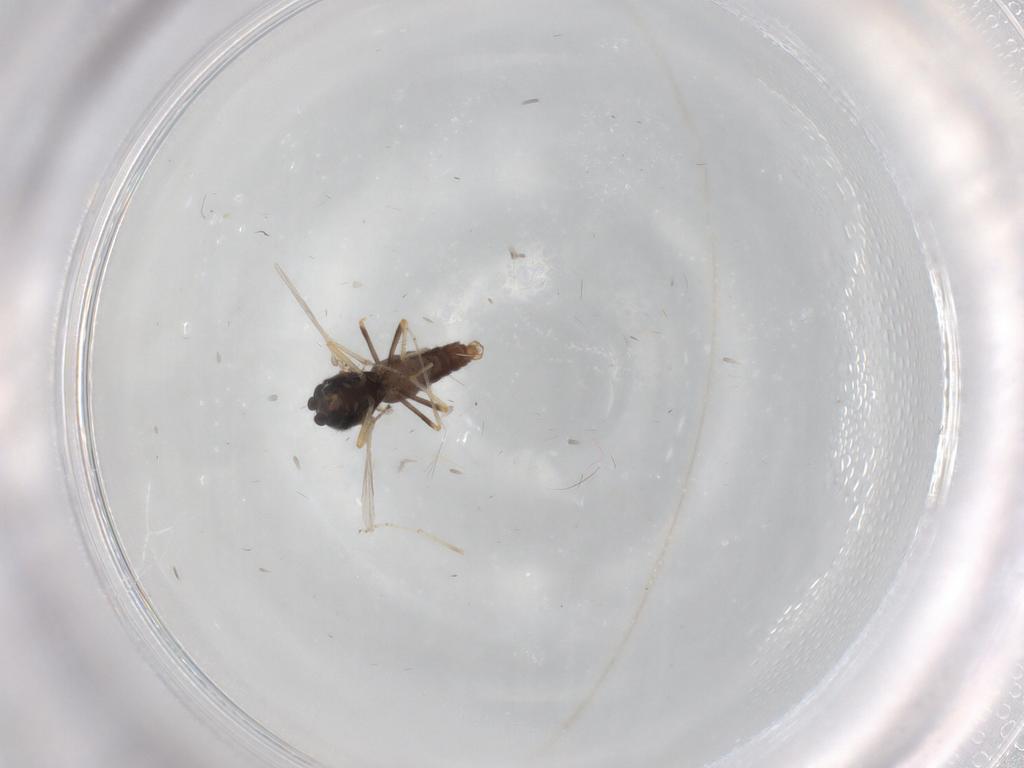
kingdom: Animalia
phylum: Arthropoda
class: Insecta
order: Diptera
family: Ceratopogonidae
